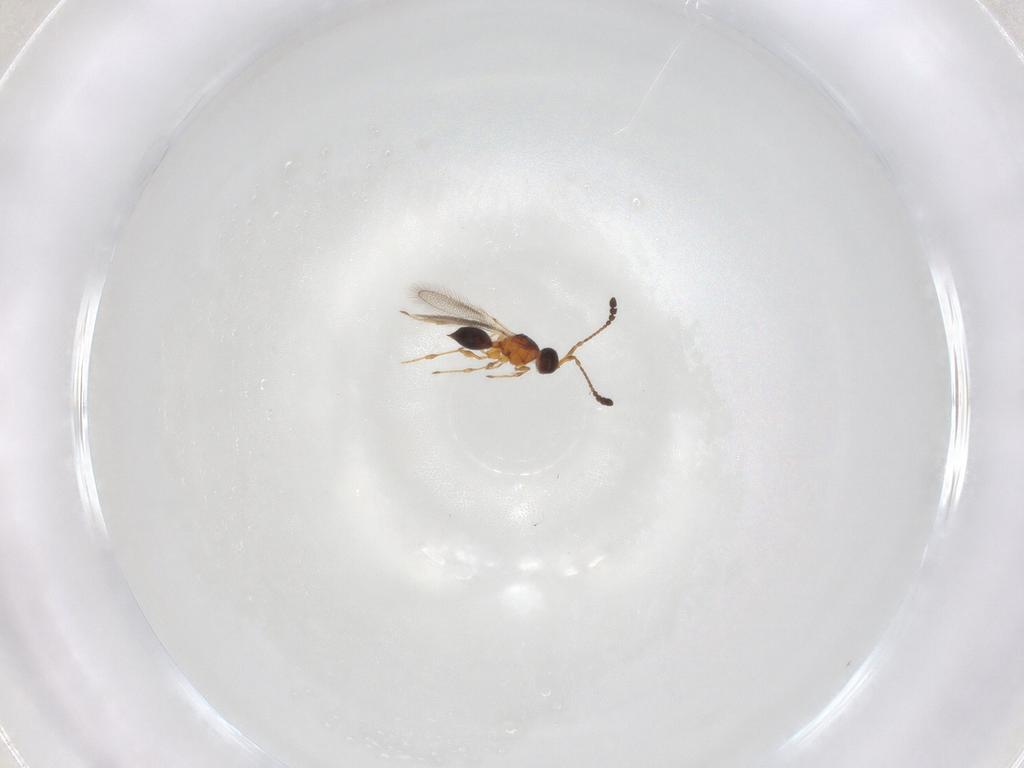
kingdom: Animalia
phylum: Arthropoda
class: Insecta
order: Hymenoptera
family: Diapriidae
